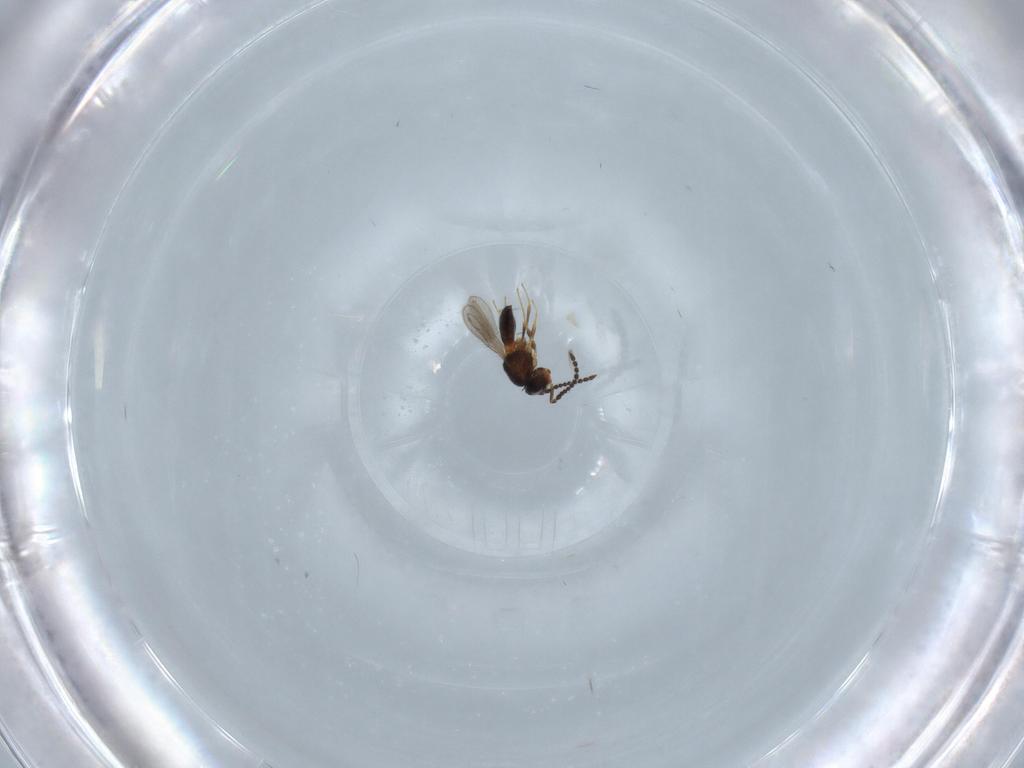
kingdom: Animalia
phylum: Arthropoda
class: Insecta
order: Hymenoptera
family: Scelionidae
